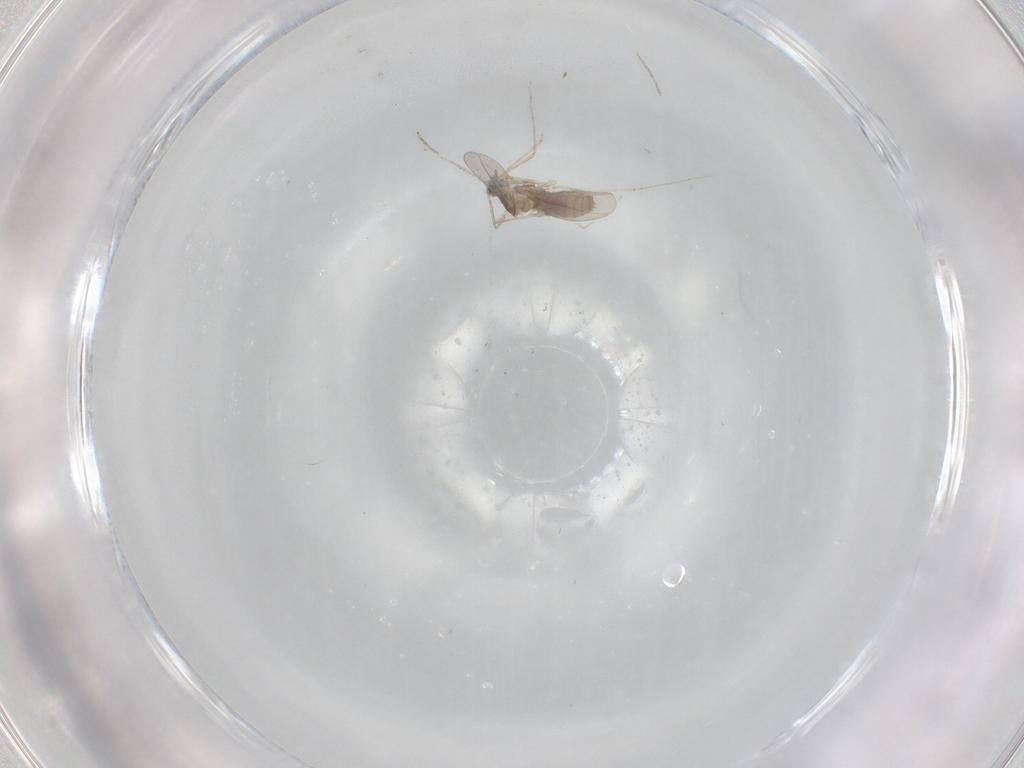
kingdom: Animalia
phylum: Arthropoda
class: Insecta
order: Diptera
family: Cecidomyiidae
